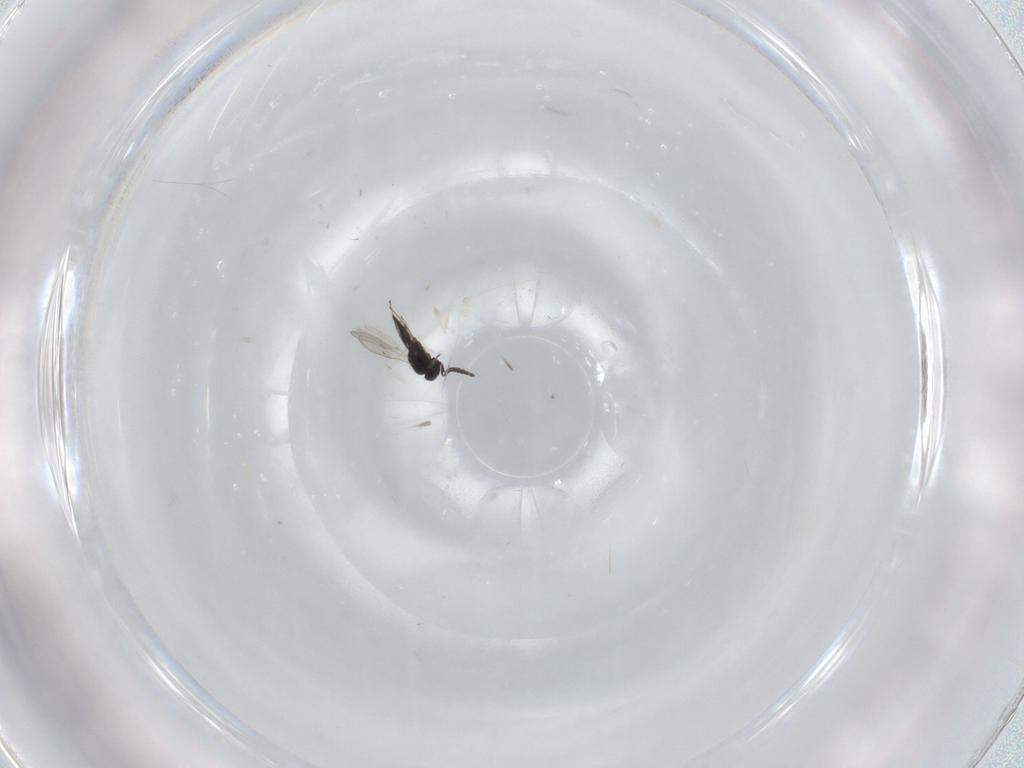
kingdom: Animalia
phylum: Arthropoda
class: Insecta
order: Hymenoptera
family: Scelionidae
